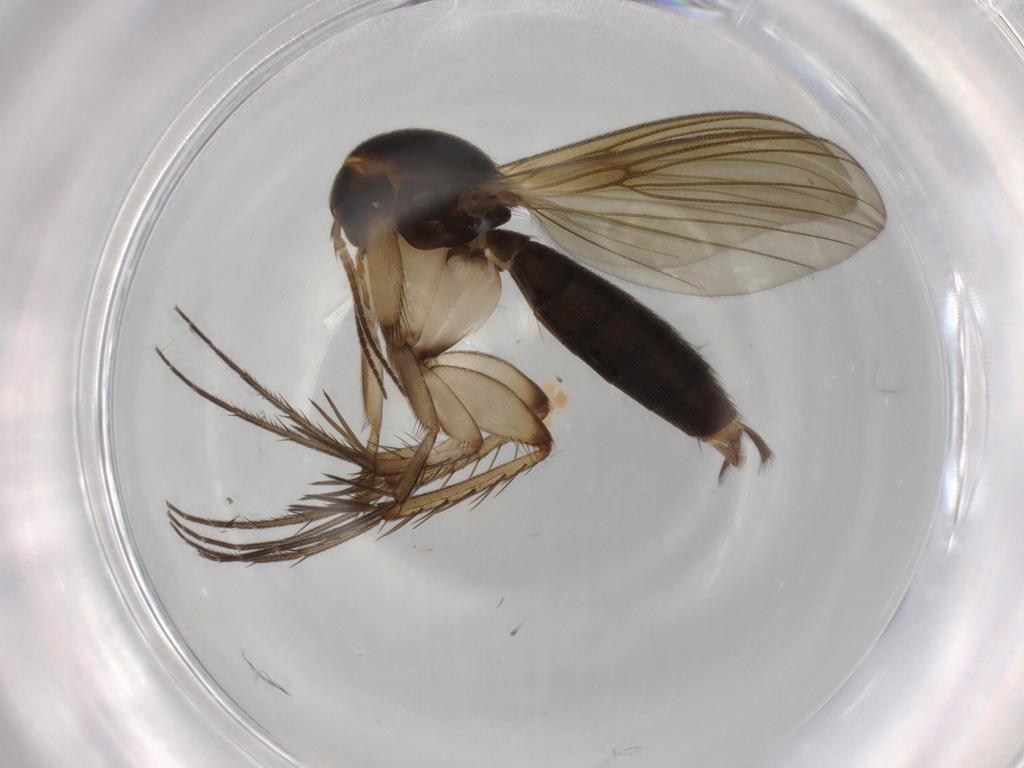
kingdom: Animalia
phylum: Arthropoda
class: Insecta
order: Diptera
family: Mycetophilidae
